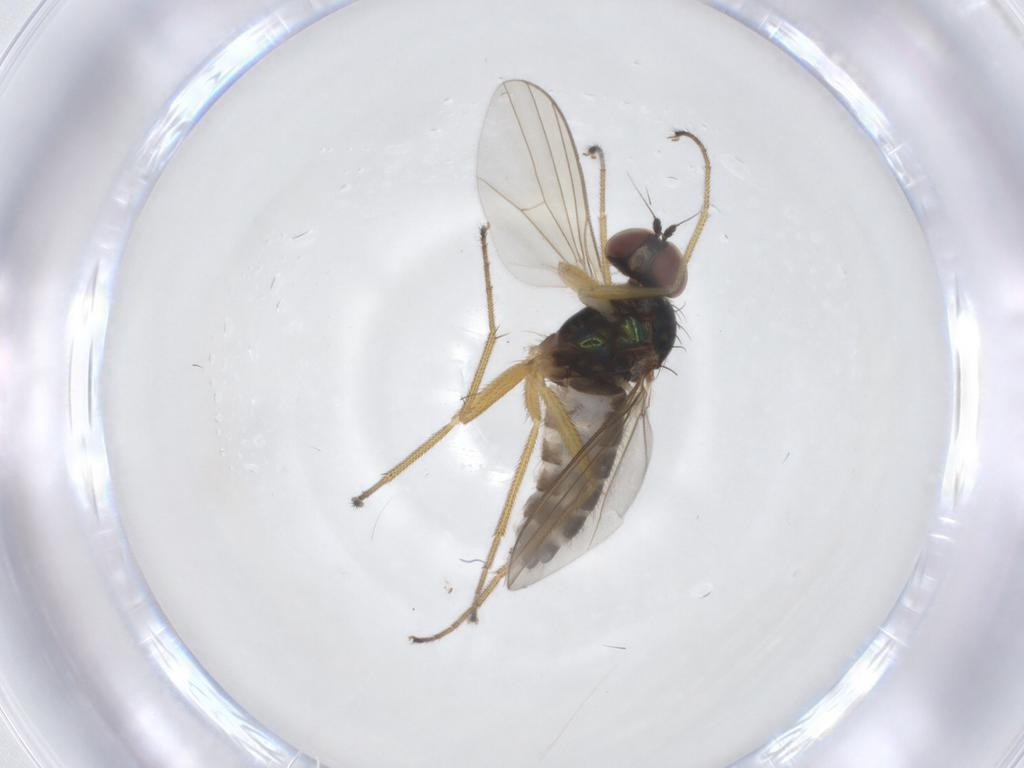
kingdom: Animalia
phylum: Arthropoda
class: Insecta
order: Diptera
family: Dolichopodidae
